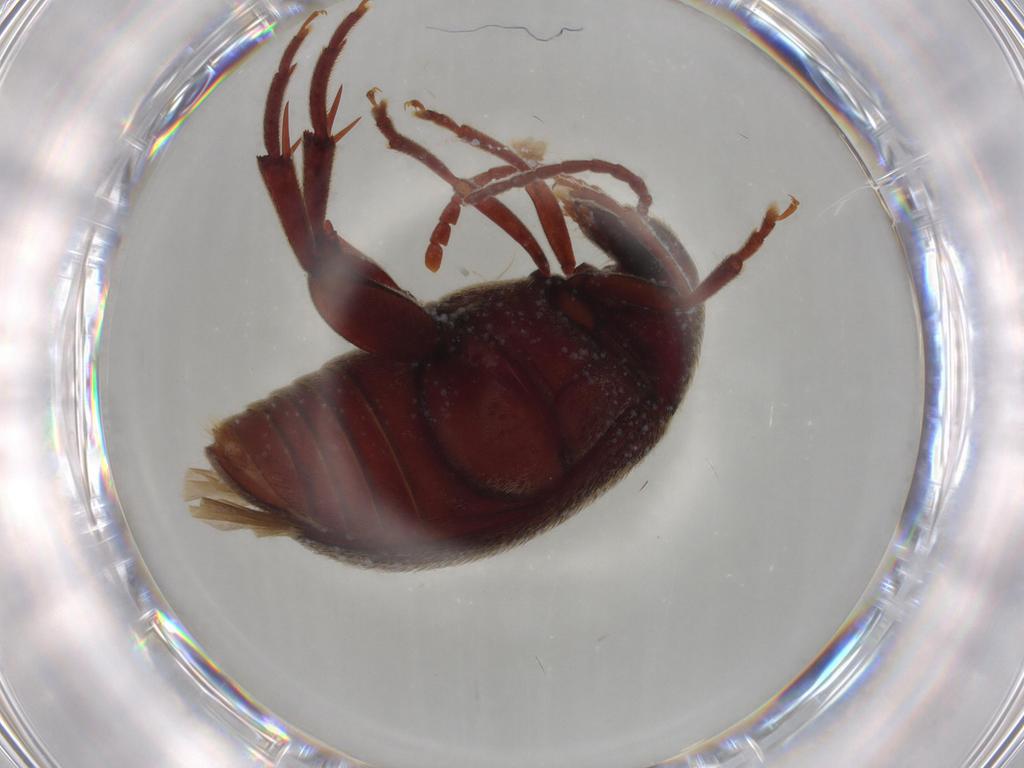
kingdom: Animalia
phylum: Arthropoda
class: Insecta
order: Coleoptera
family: Chrysomelidae
